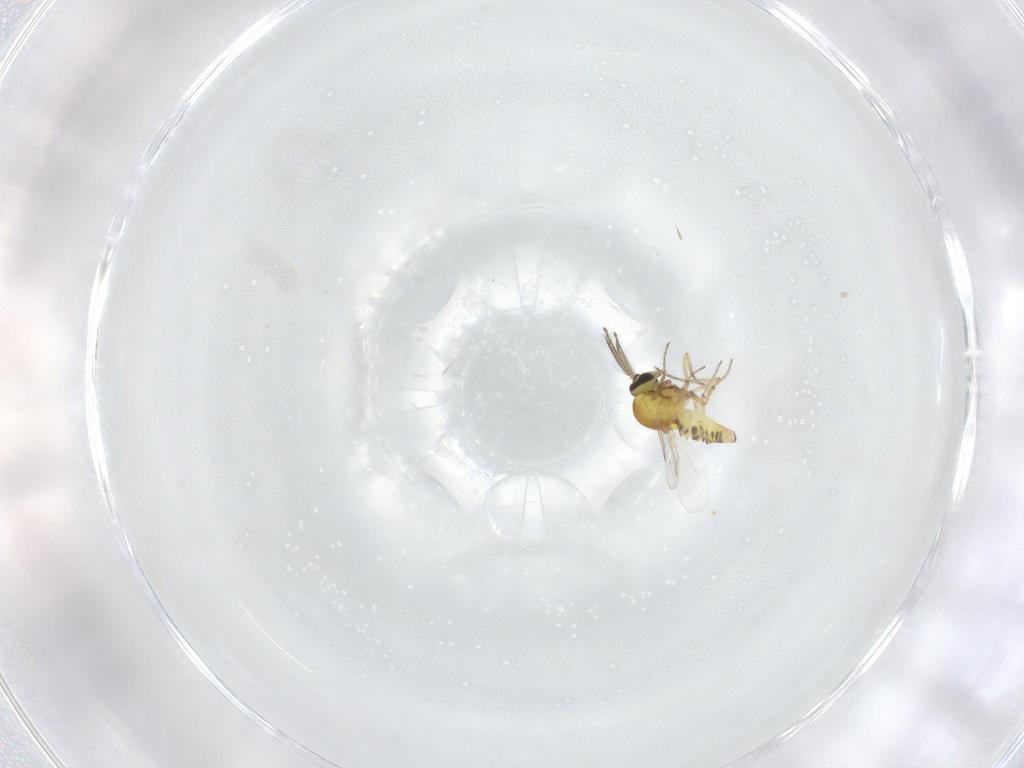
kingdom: Animalia
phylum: Arthropoda
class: Insecta
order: Diptera
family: Ceratopogonidae
